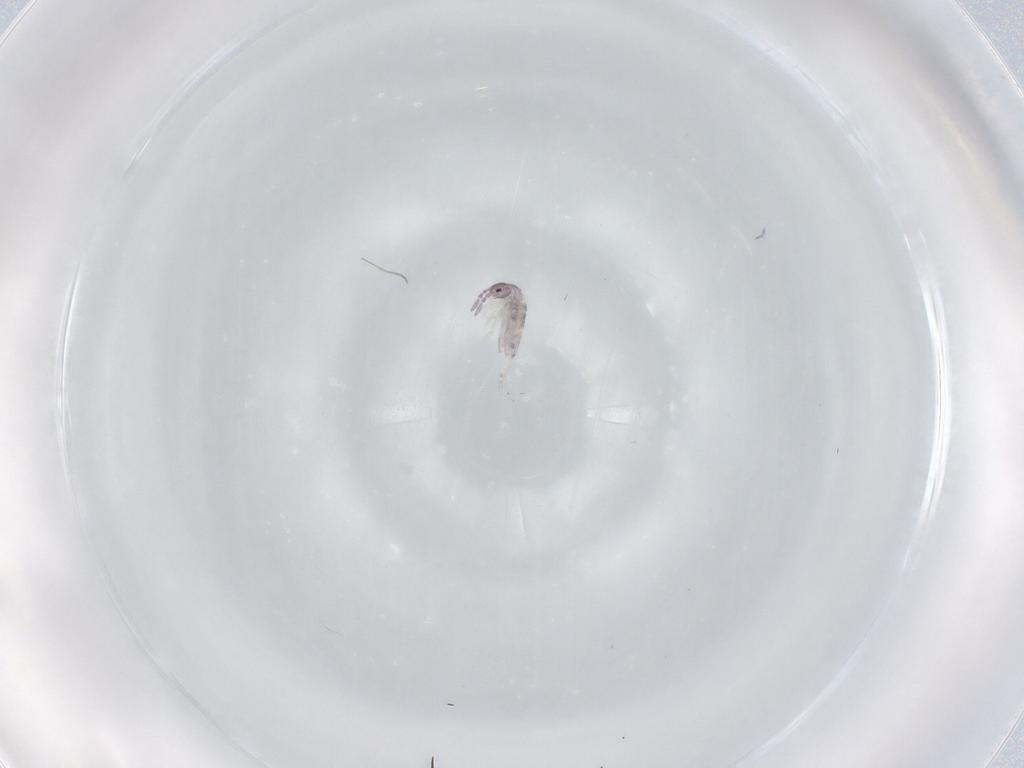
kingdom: Animalia
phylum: Arthropoda
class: Collembola
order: Entomobryomorpha
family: Entomobryidae
